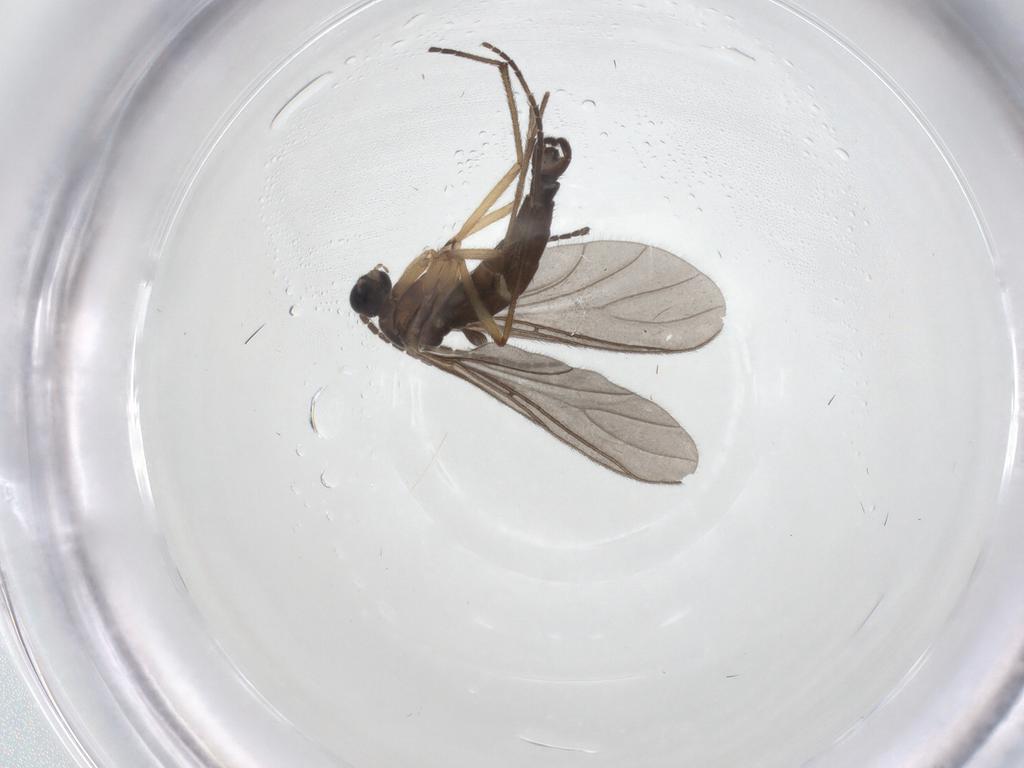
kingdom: Animalia
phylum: Arthropoda
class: Insecta
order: Diptera
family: Sciaridae
